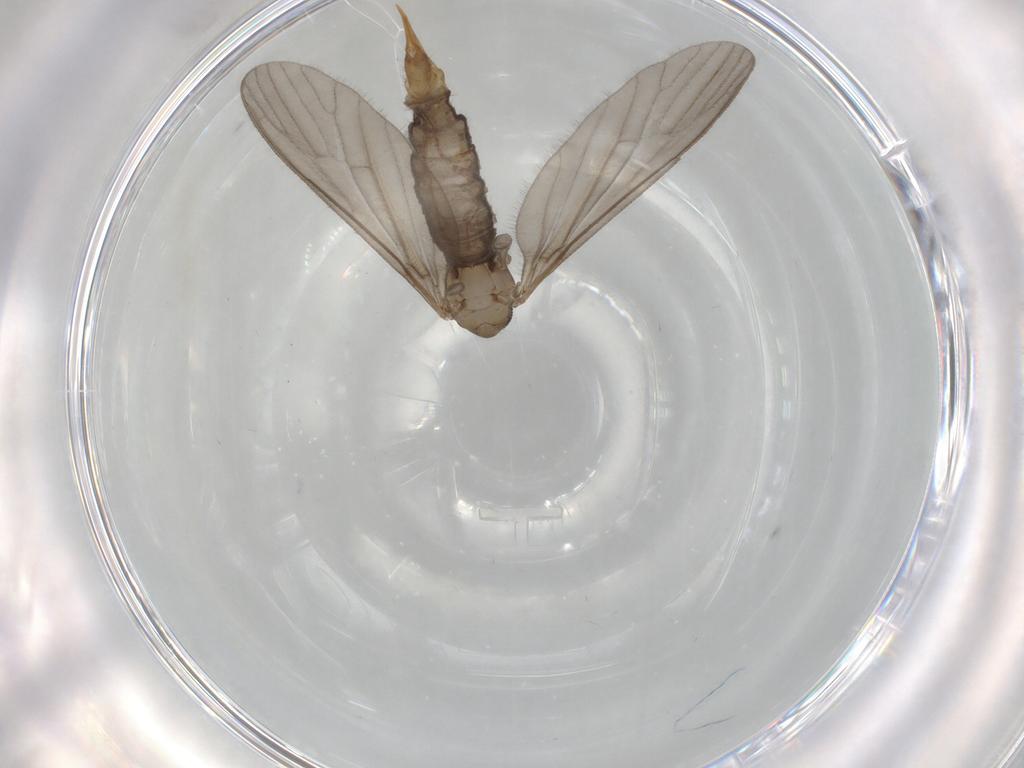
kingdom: Animalia
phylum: Arthropoda
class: Insecta
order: Diptera
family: Limoniidae
